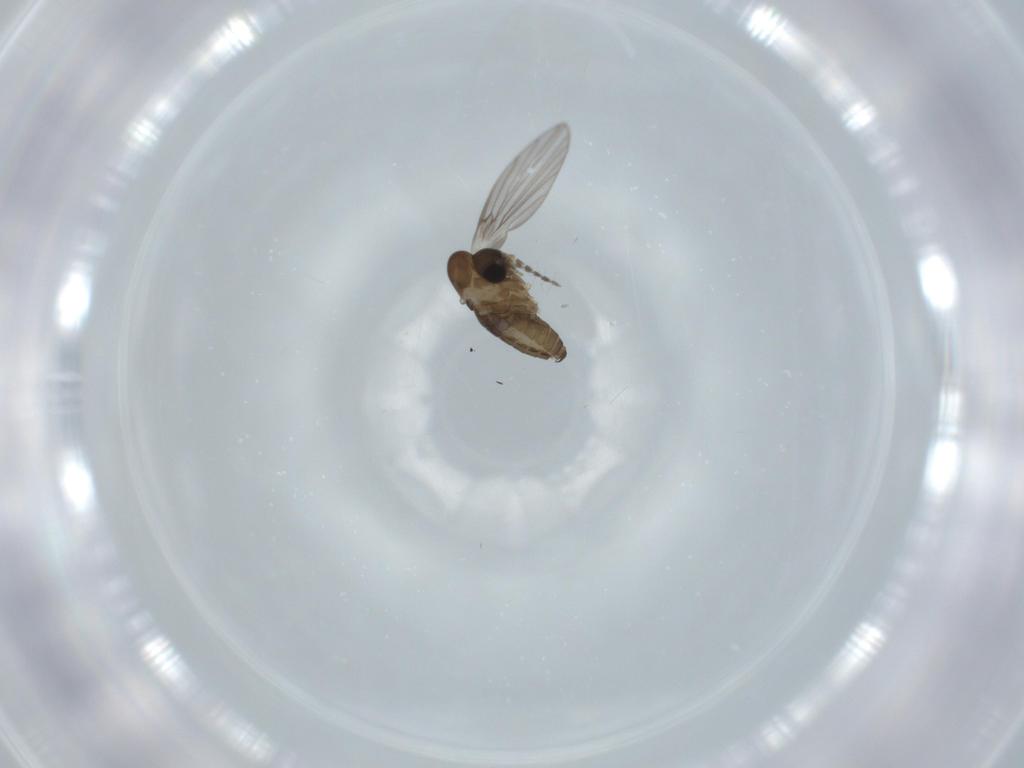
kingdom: Animalia
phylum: Arthropoda
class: Insecta
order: Diptera
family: Psychodidae
